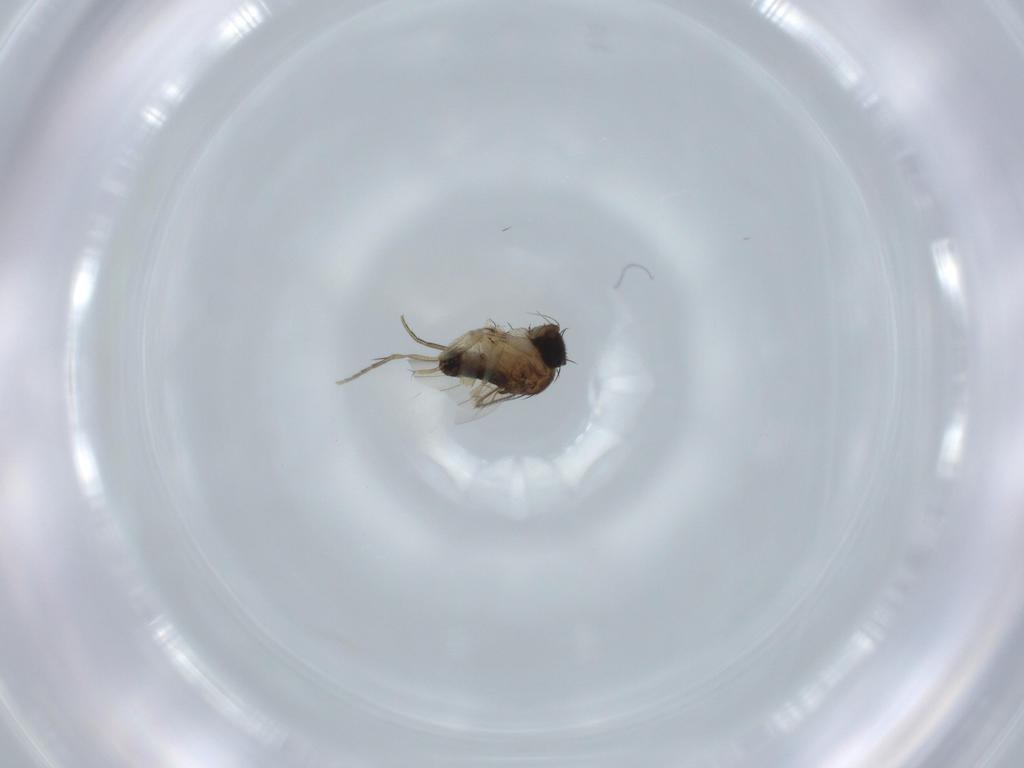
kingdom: Animalia
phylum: Arthropoda
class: Insecta
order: Diptera
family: Phoridae
